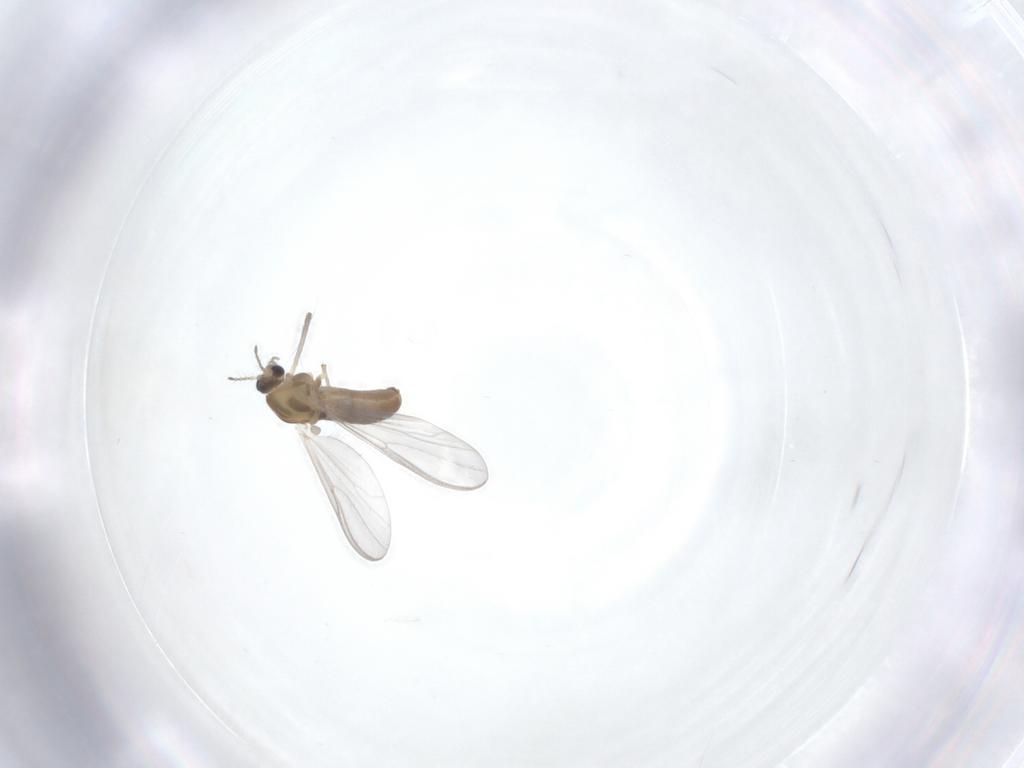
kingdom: Animalia
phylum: Arthropoda
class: Insecta
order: Diptera
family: Chironomidae
